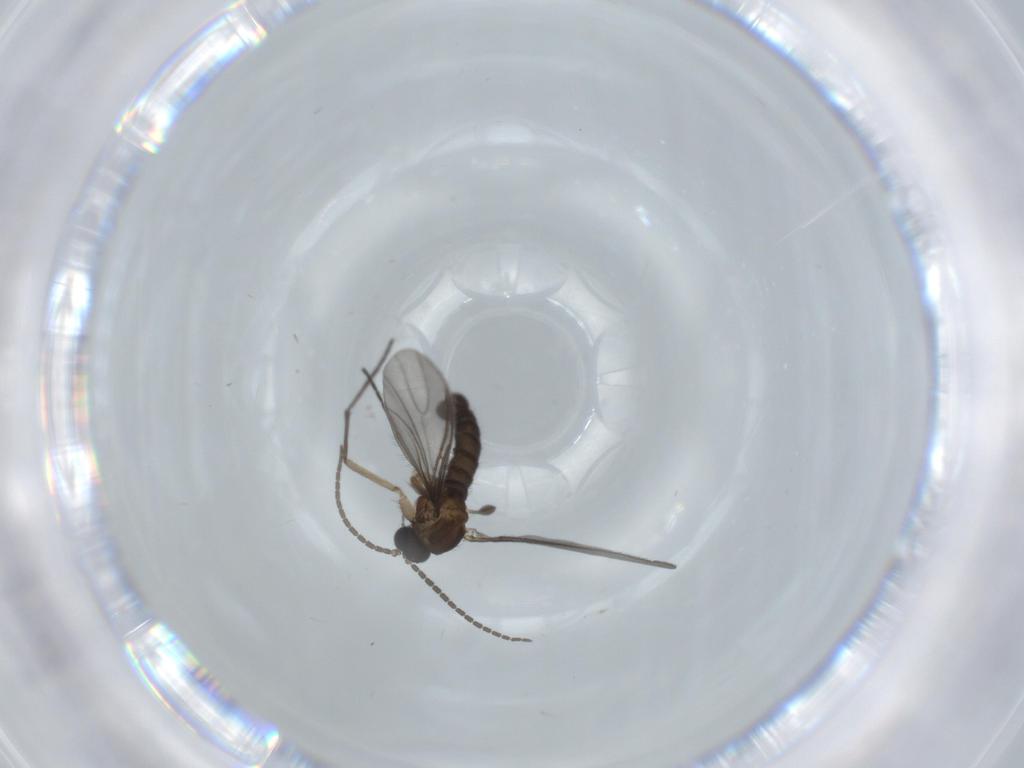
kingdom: Animalia
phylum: Arthropoda
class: Insecta
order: Diptera
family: Sciaridae
